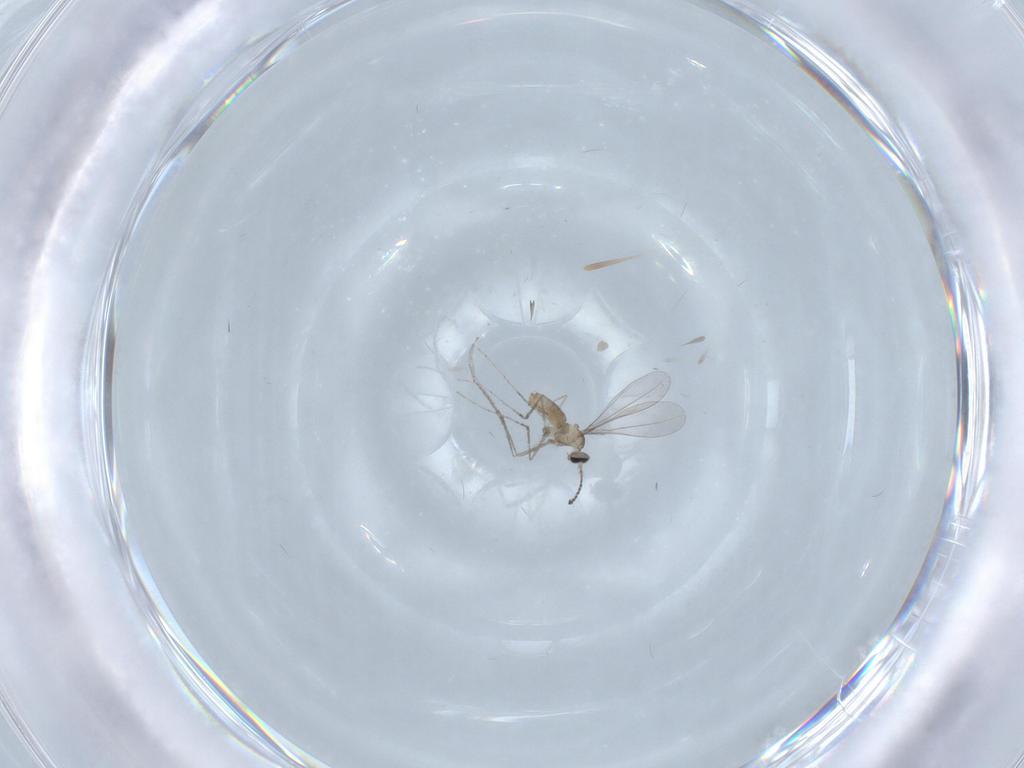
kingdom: Animalia
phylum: Arthropoda
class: Insecta
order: Diptera
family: Cecidomyiidae
